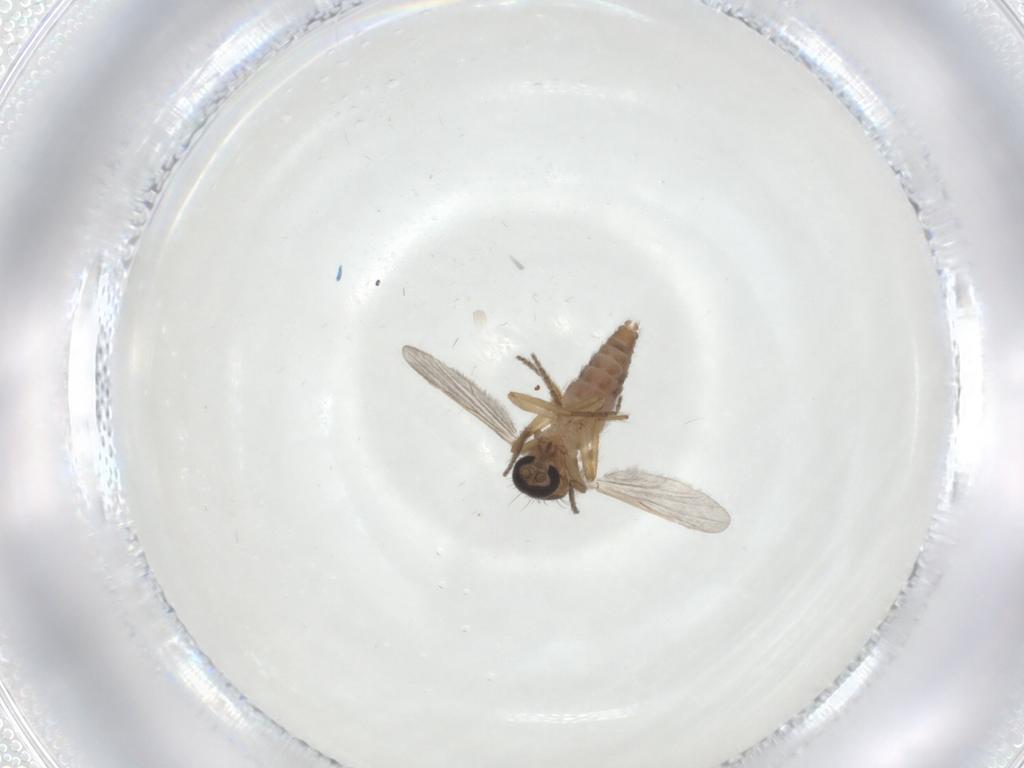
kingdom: Animalia
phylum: Arthropoda
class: Insecta
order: Diptera
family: Ceratopogonidae
